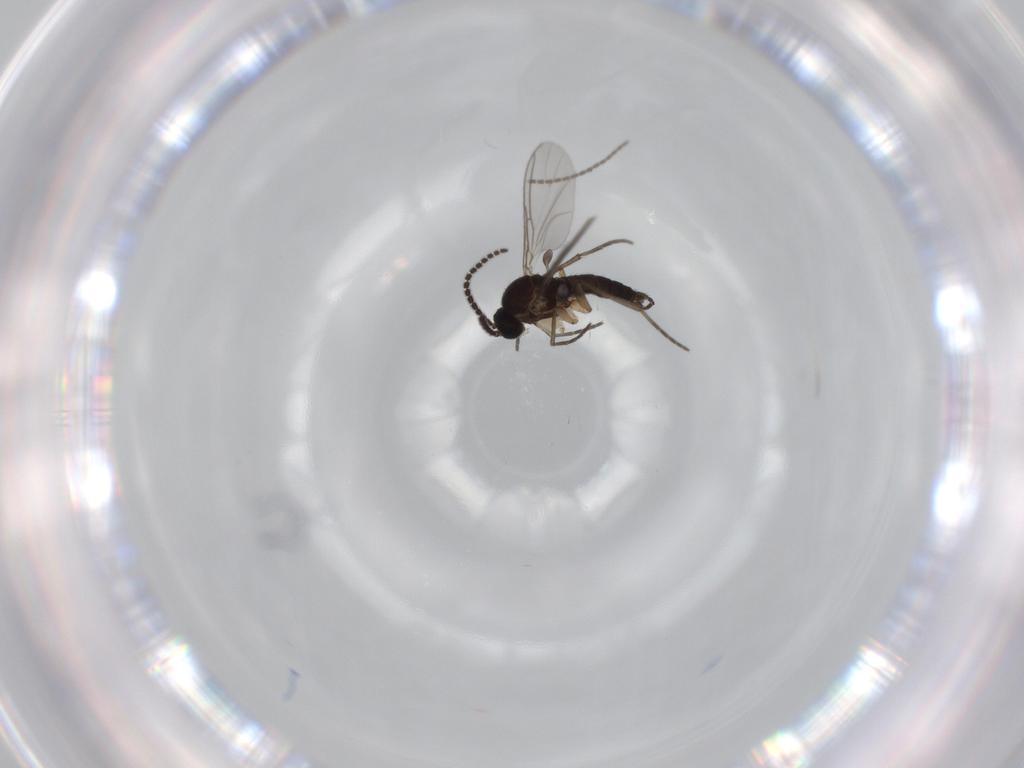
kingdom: Animalia
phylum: Arthropoda
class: Insecta
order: Diptera
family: Sciaridae
